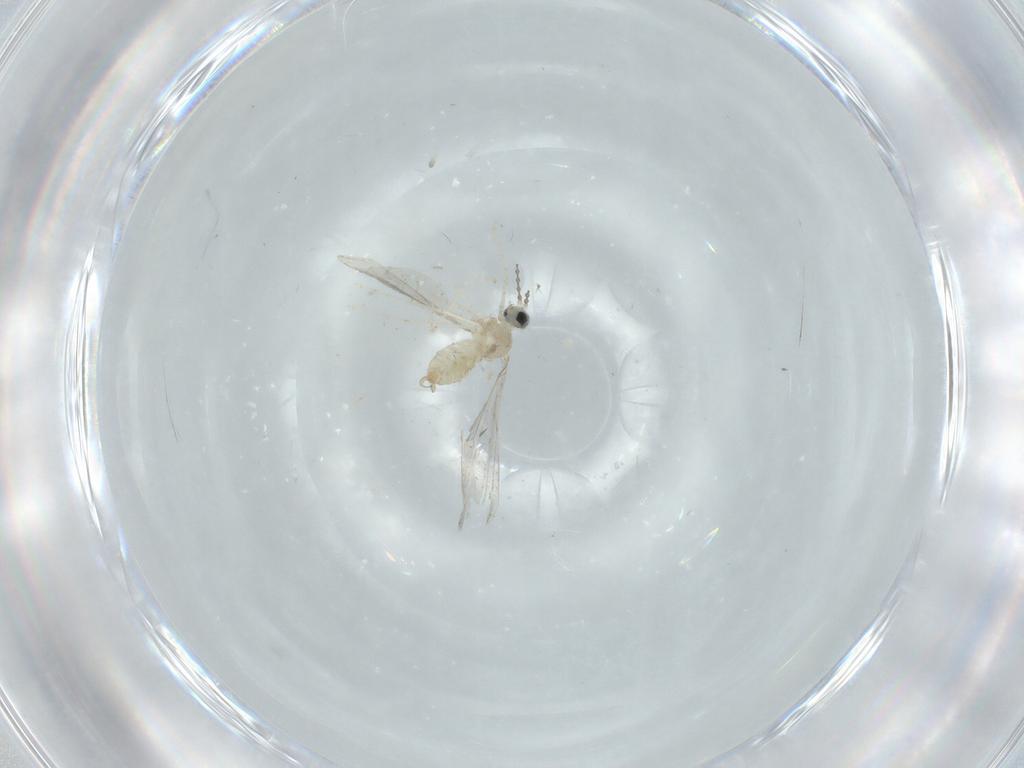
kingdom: Animalia
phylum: Arthropoda
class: Insecta
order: Diptera
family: Cecidomyiidae
